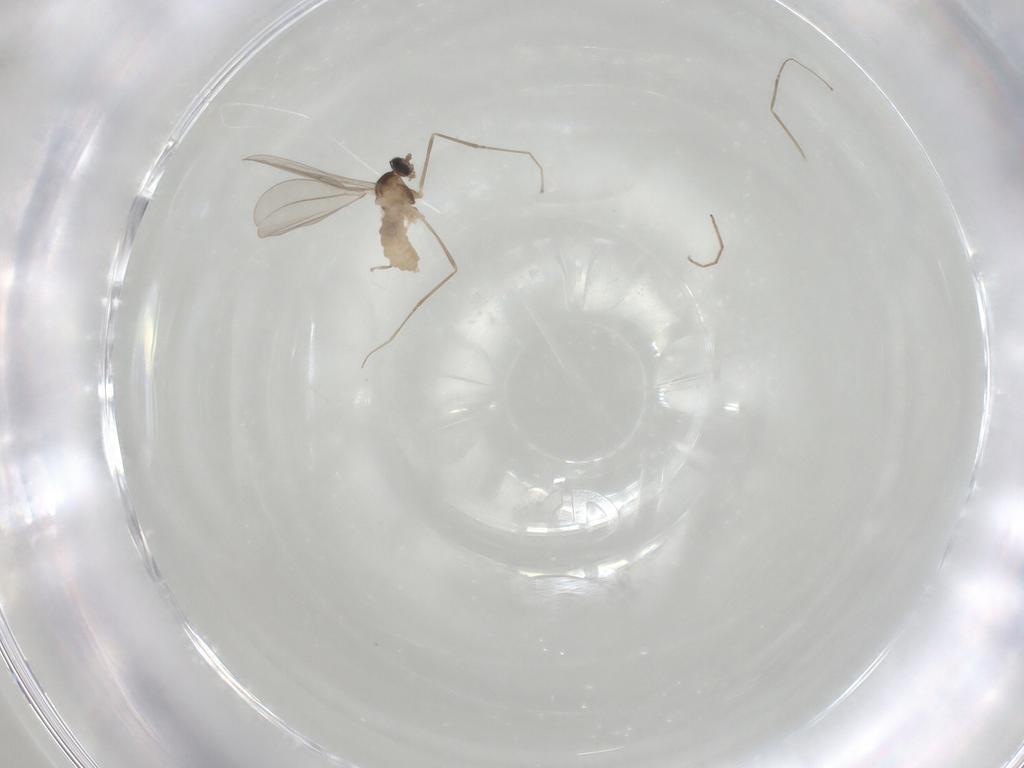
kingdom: Animalia
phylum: Arthropoda
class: Insecta
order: Diptera
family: Cecidomyiidae
